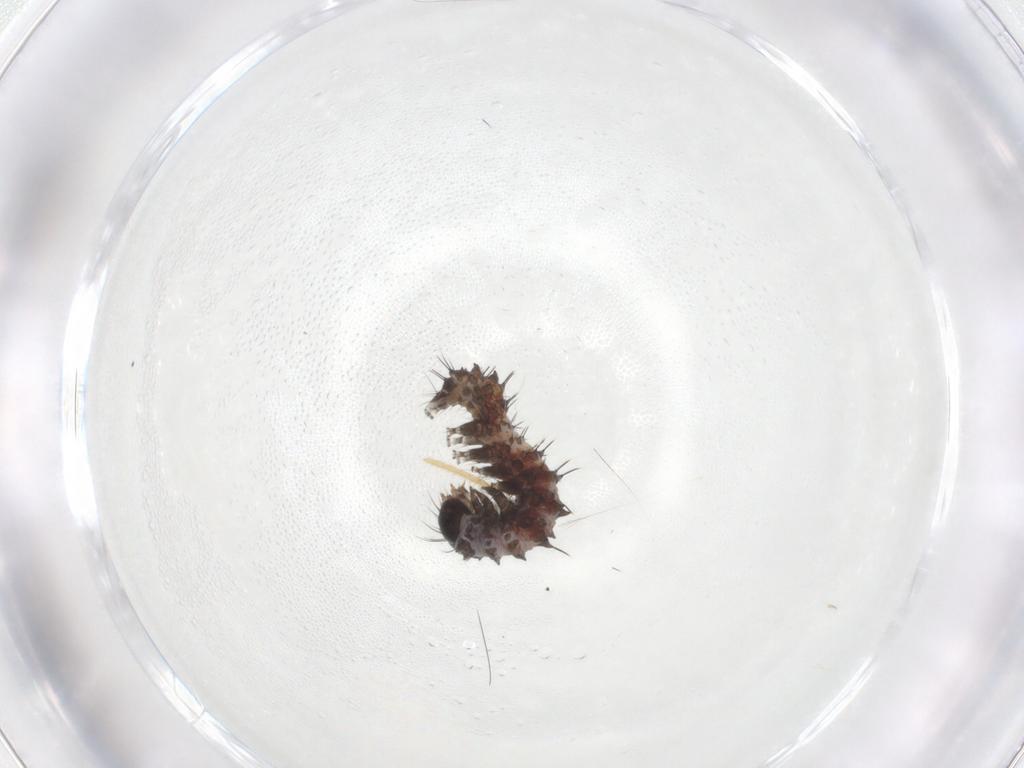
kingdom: Animalia
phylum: Arthropoda
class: Insecta
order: Lepidoptera
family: Noctuidae
